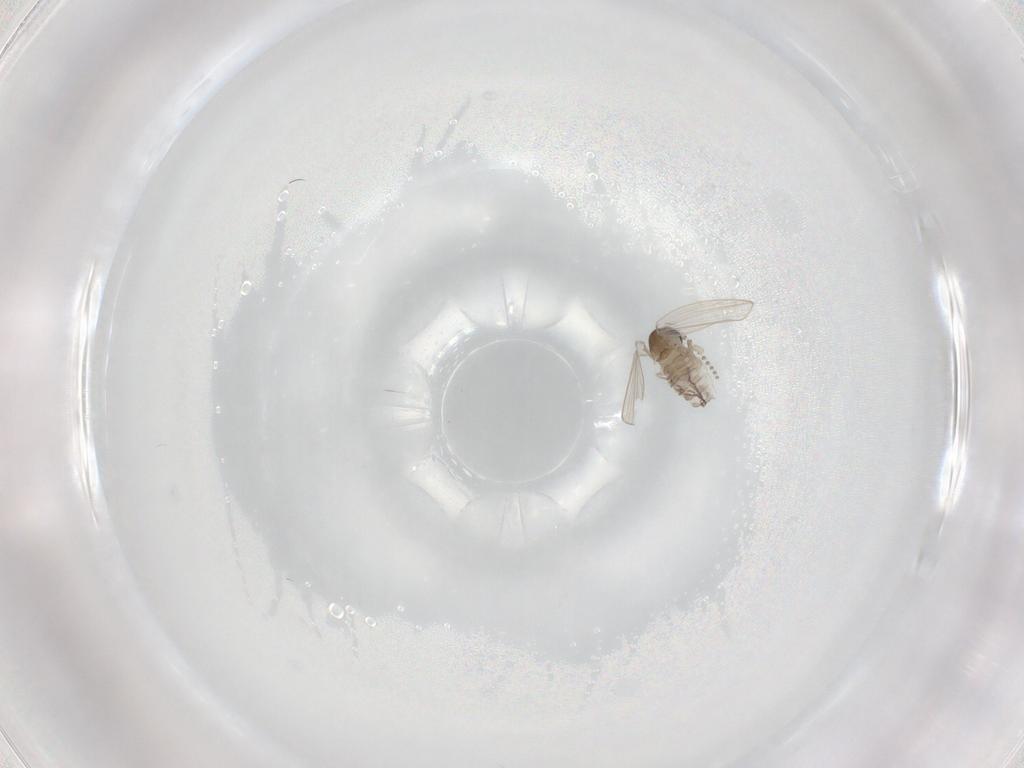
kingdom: Animalia
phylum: Arthropoda
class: Insecta
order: Diptera
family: Psychodidae
